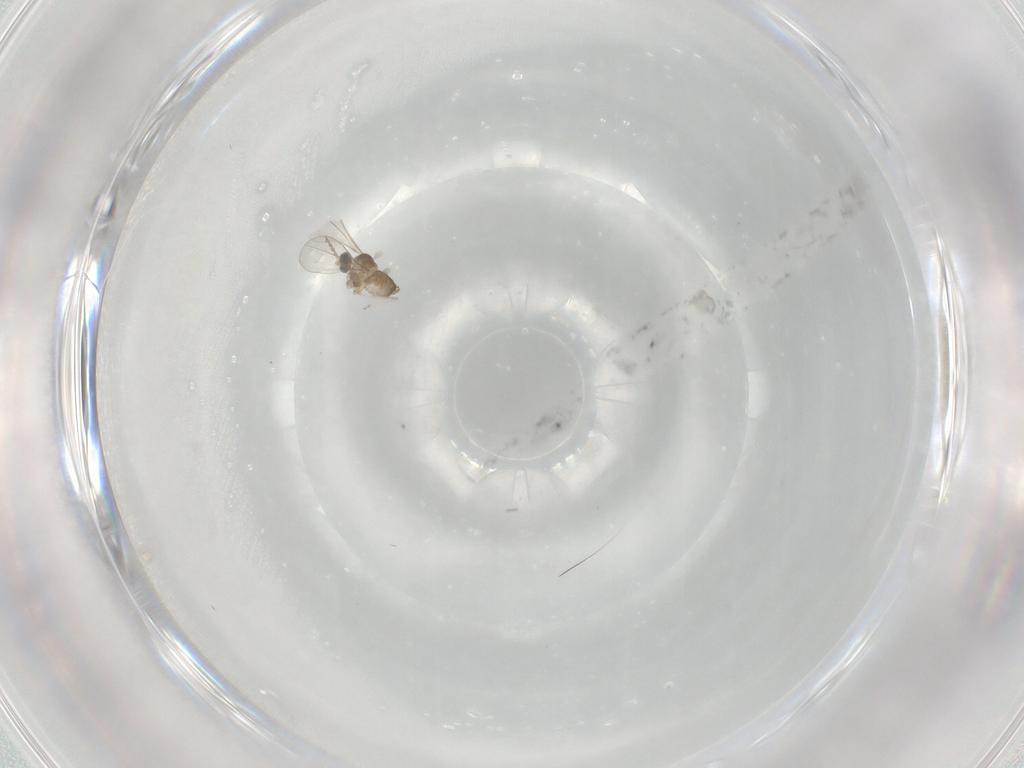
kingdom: Animalia
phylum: Arthropoda
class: Insecta
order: Diptera
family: Cecidomyiidae
